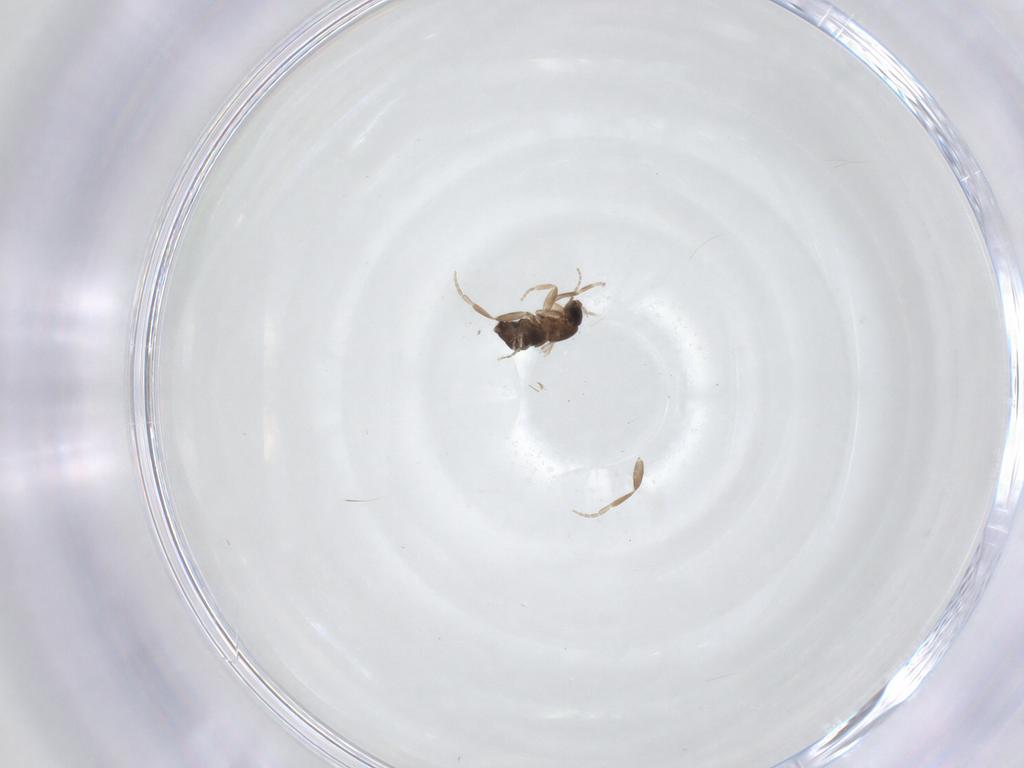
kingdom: Animalia
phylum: Arthropoda
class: Insecta
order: Diptera
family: Phoridae
